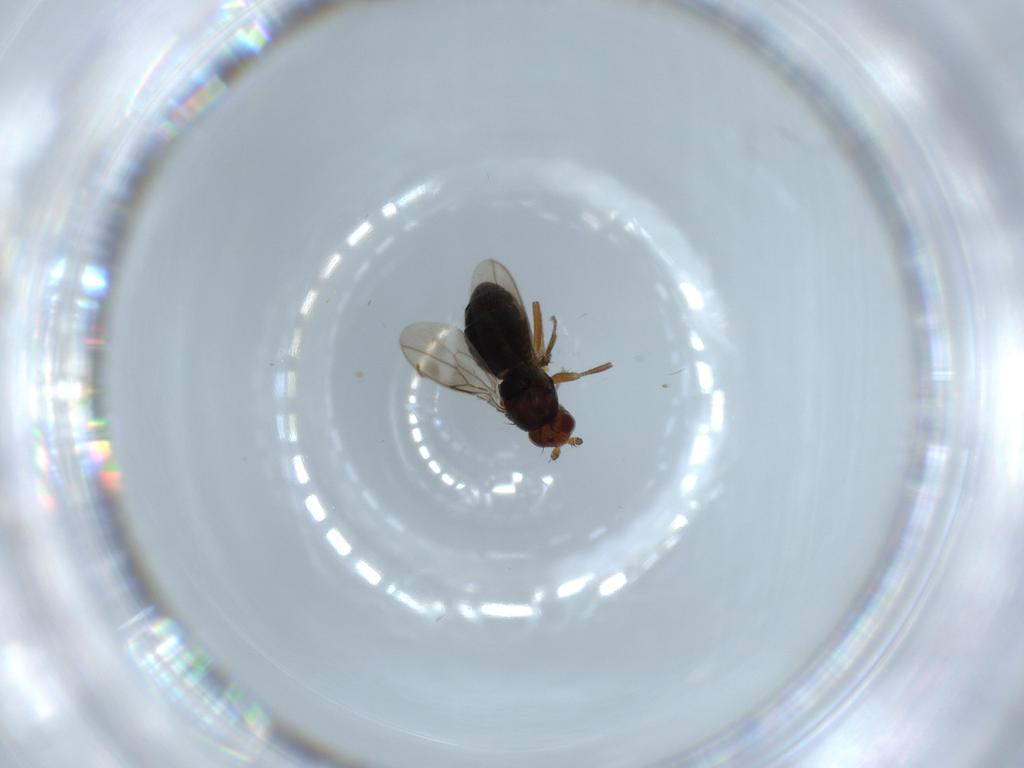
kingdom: Animalia
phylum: Arthropoda
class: Insecta
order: Diptera
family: Sphaeroceridae
